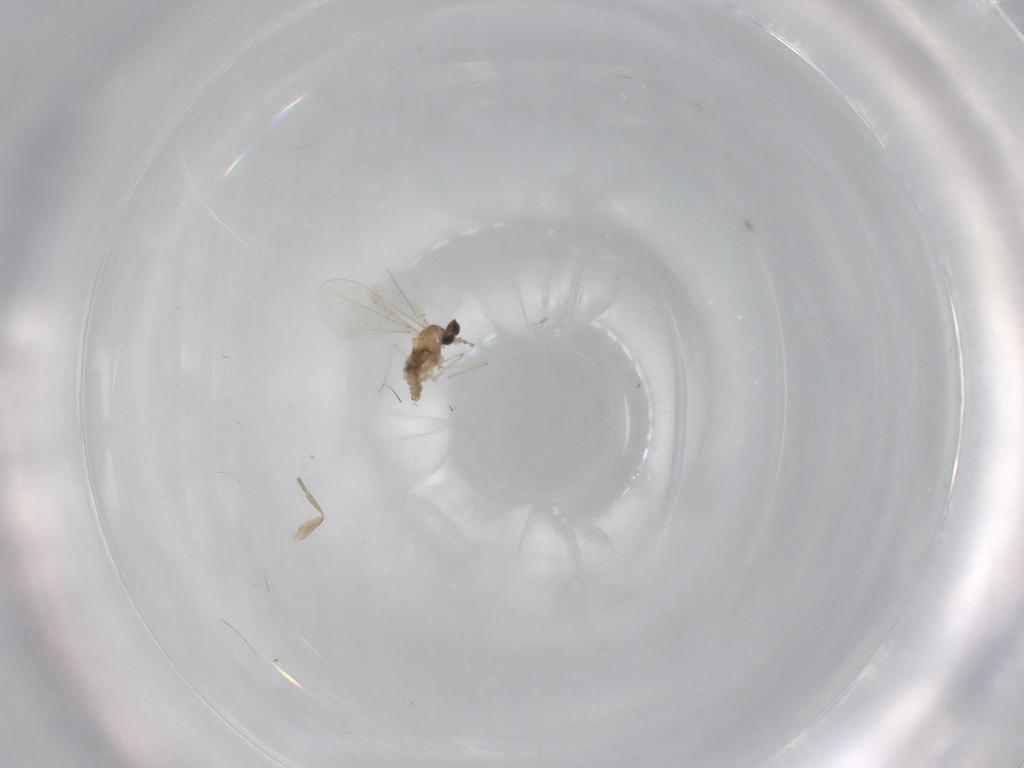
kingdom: Animalia
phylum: Arthropoda
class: Insecta
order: Diptera
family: Cecidomyiidae
